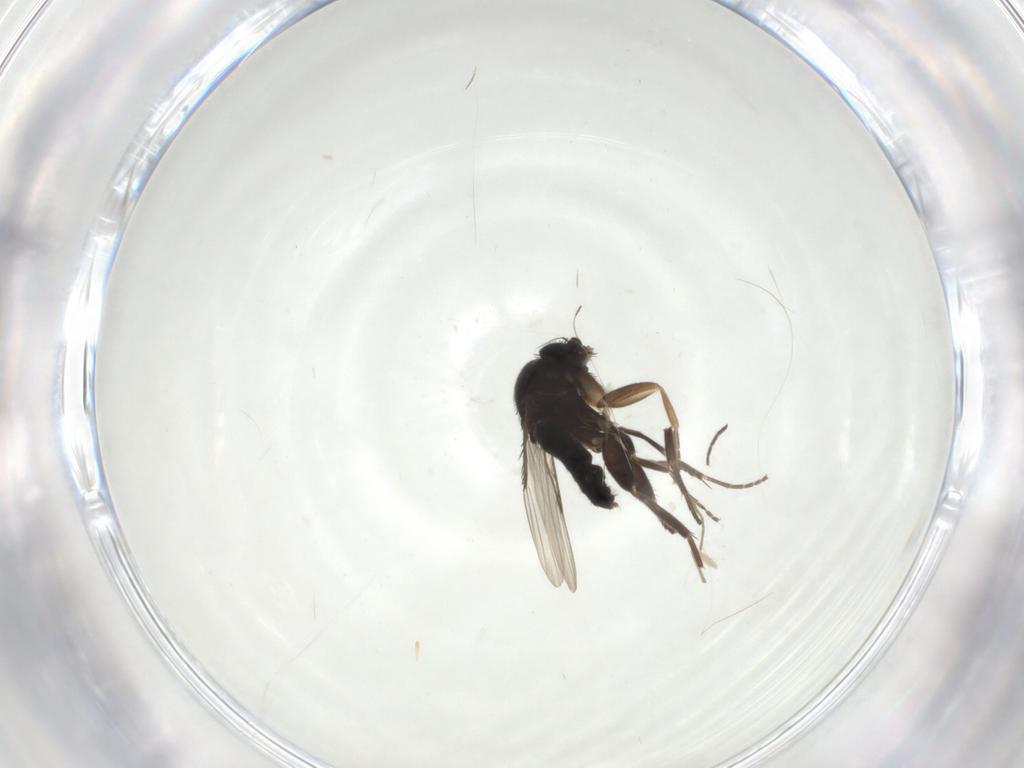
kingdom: Animalia
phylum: Arthropoda
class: Insecta
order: Diptera
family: Phoridae
